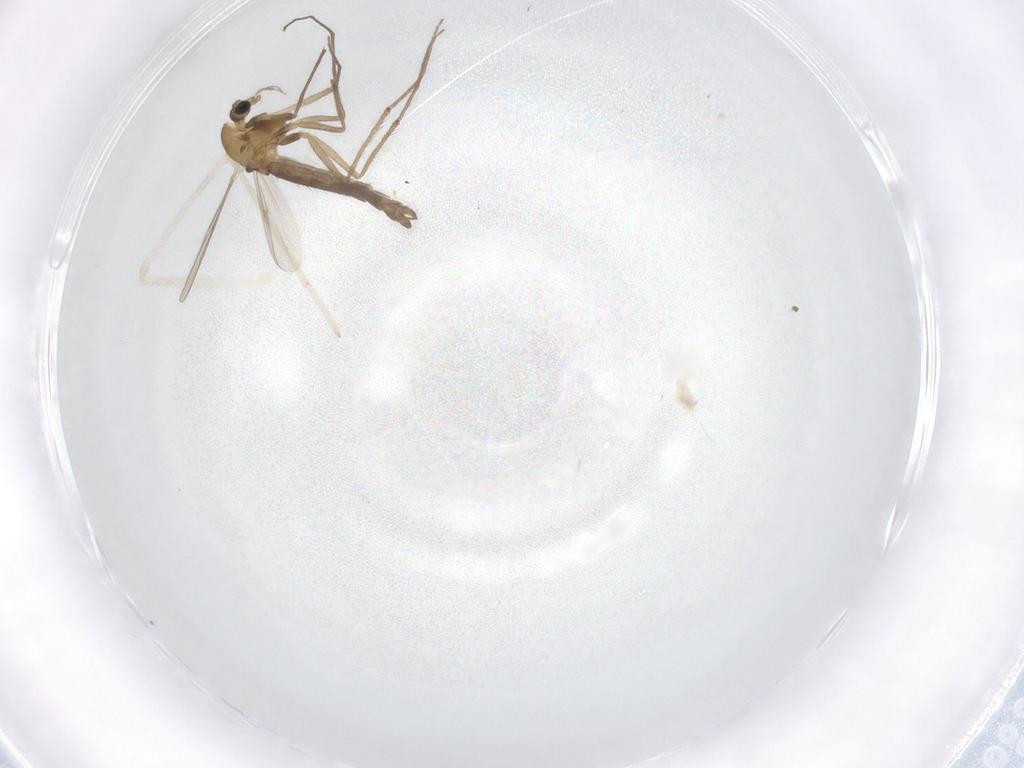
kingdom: Animalia
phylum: Arthropoda
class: Insecta
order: Diptera
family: Chironomidae
